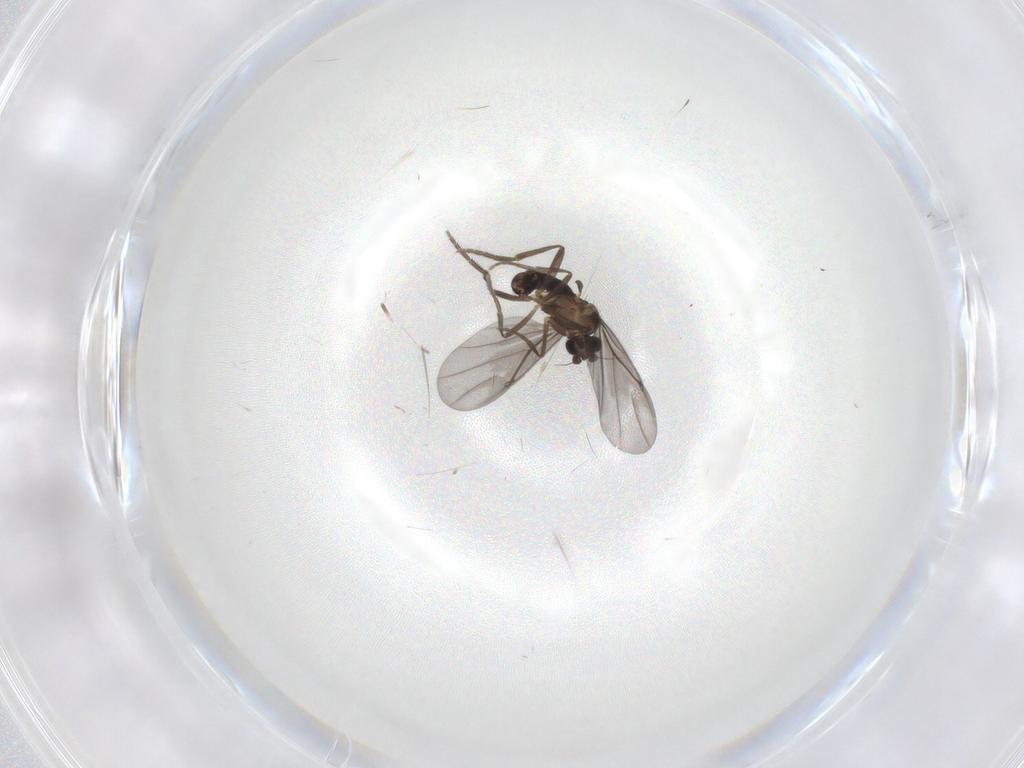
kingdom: Animalia
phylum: Arthropoda
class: Insecta
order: Diptera
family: Phoridae
